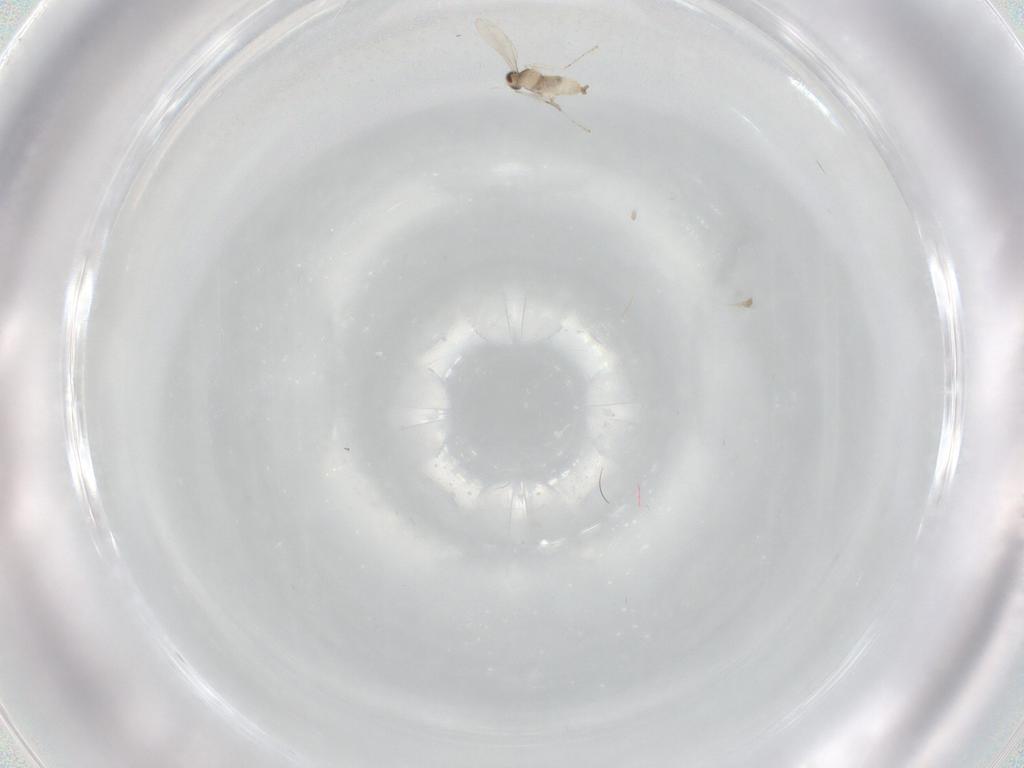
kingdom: Animalia
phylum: Arthropoda
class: Insecta
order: Diptera
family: Cecidomyiidae
